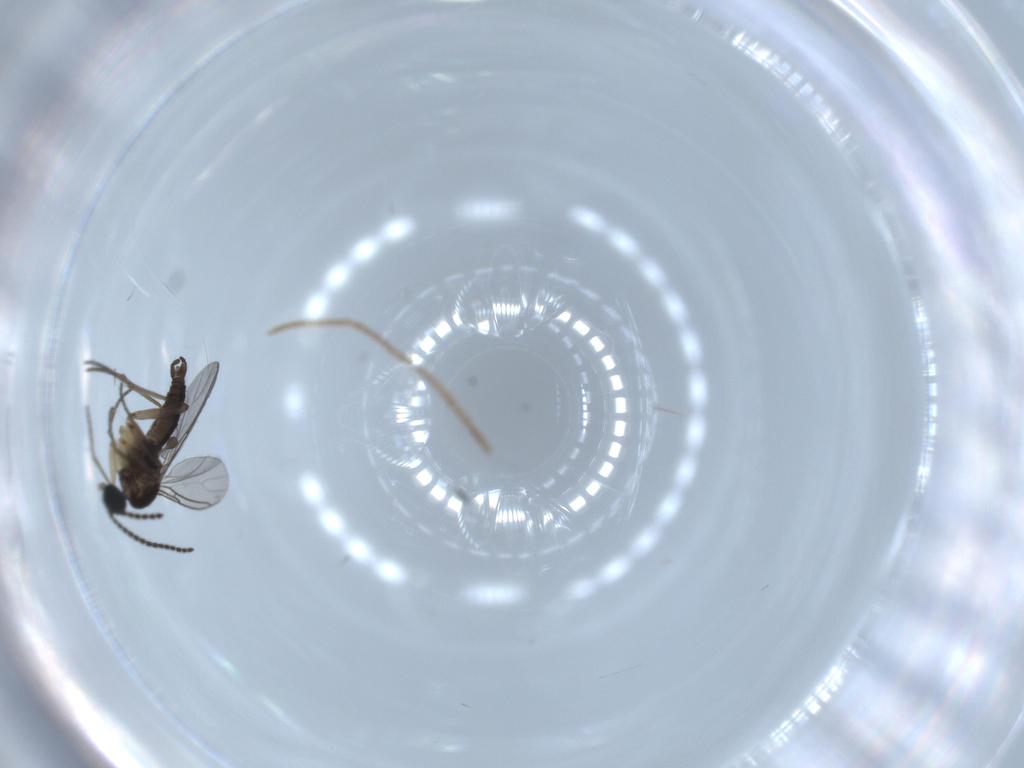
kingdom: Animalia
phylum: Arthropoda
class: Insecta
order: Diptera
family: Sciaridae
